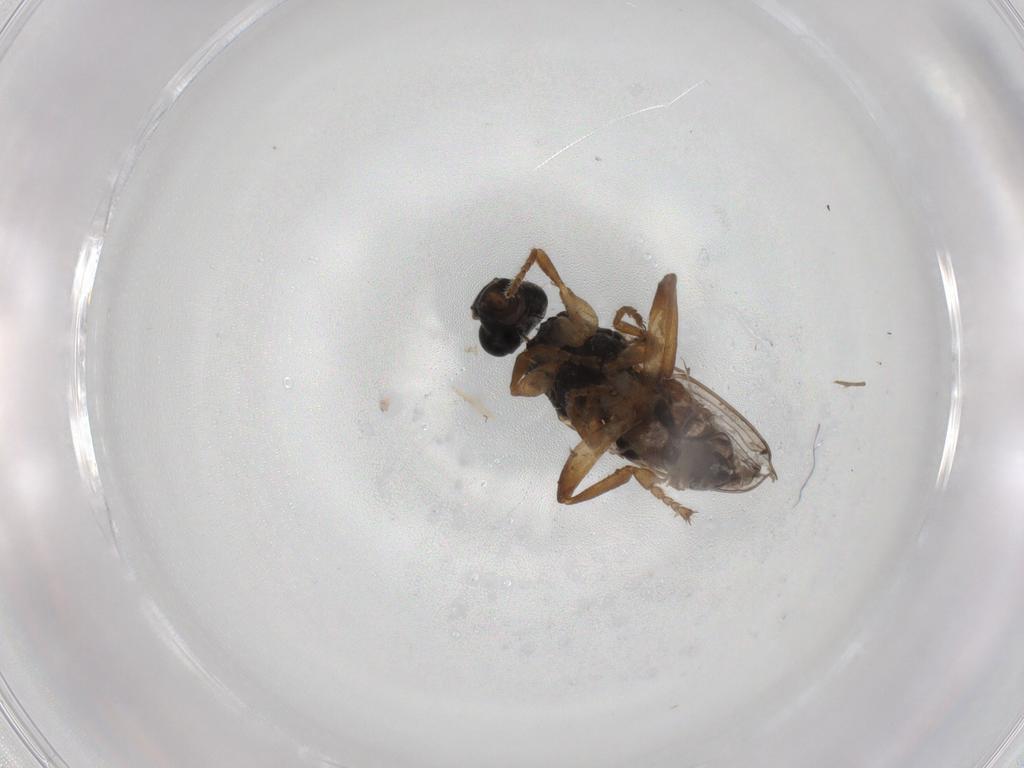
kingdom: Animalia
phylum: Arthropoda
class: Insecta
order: Diptera
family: Sphaeroceridae
